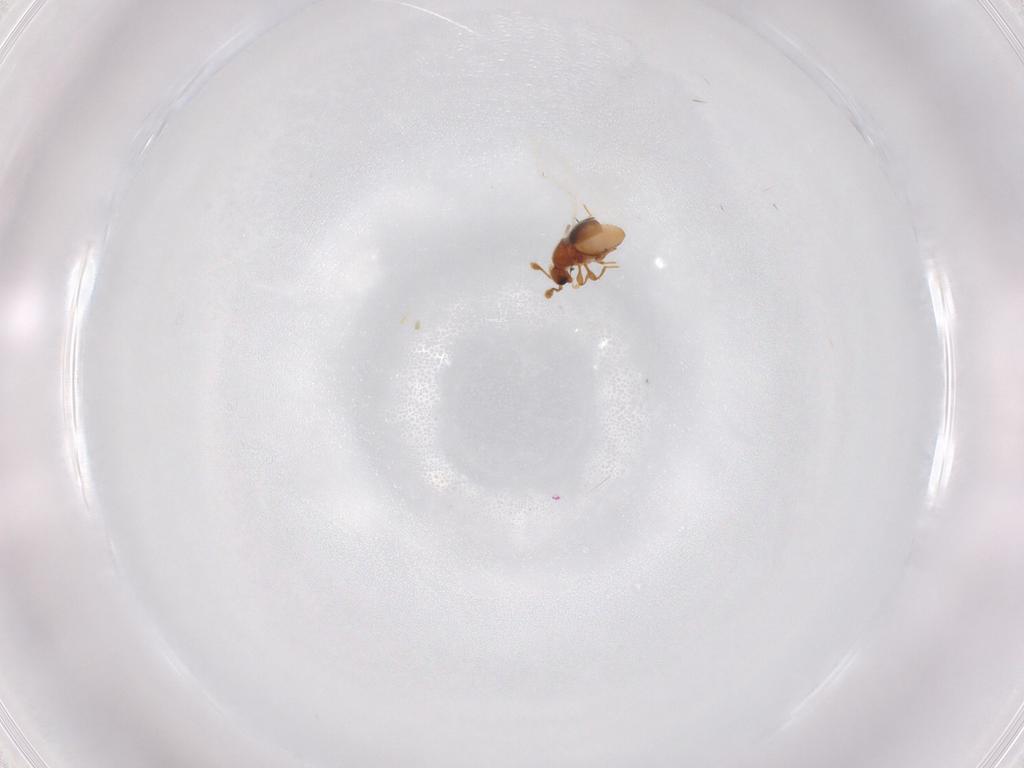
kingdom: Animalia
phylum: Arthropoda
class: Insecta
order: Coleoptera
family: Staphylinidae
